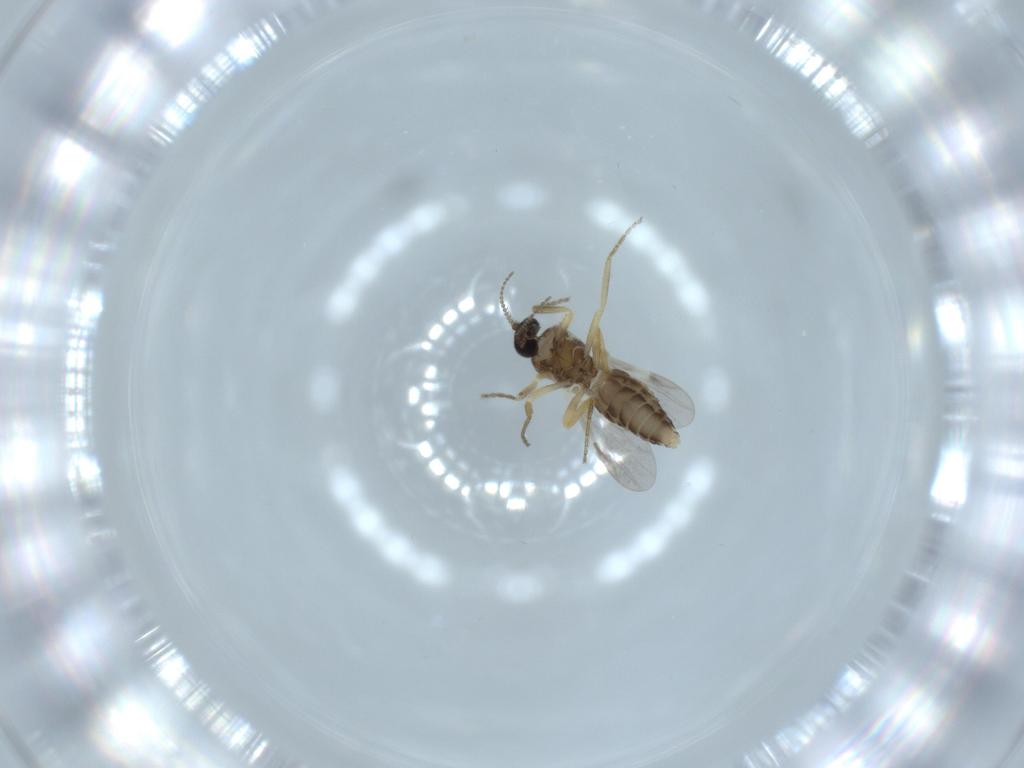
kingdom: Animalia
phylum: Arthropoda
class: Insecta
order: Diptera
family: Ceratopogonidae
